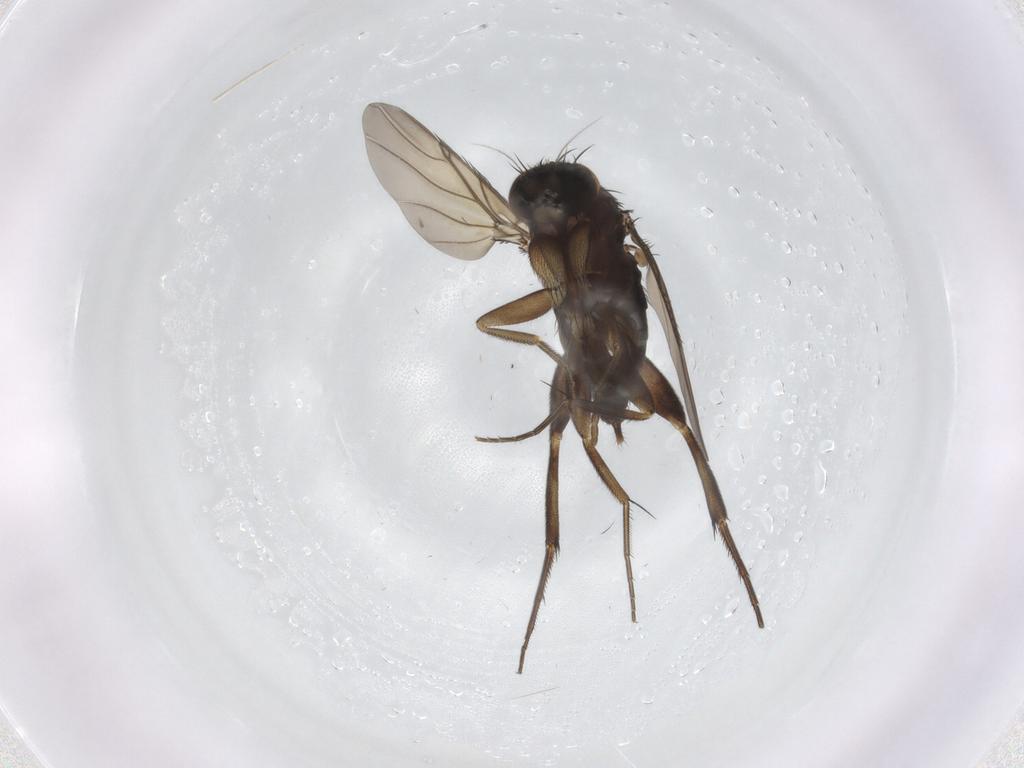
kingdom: Animalia
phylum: Arthropoda
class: Insecta
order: Diptera
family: Phoridae
